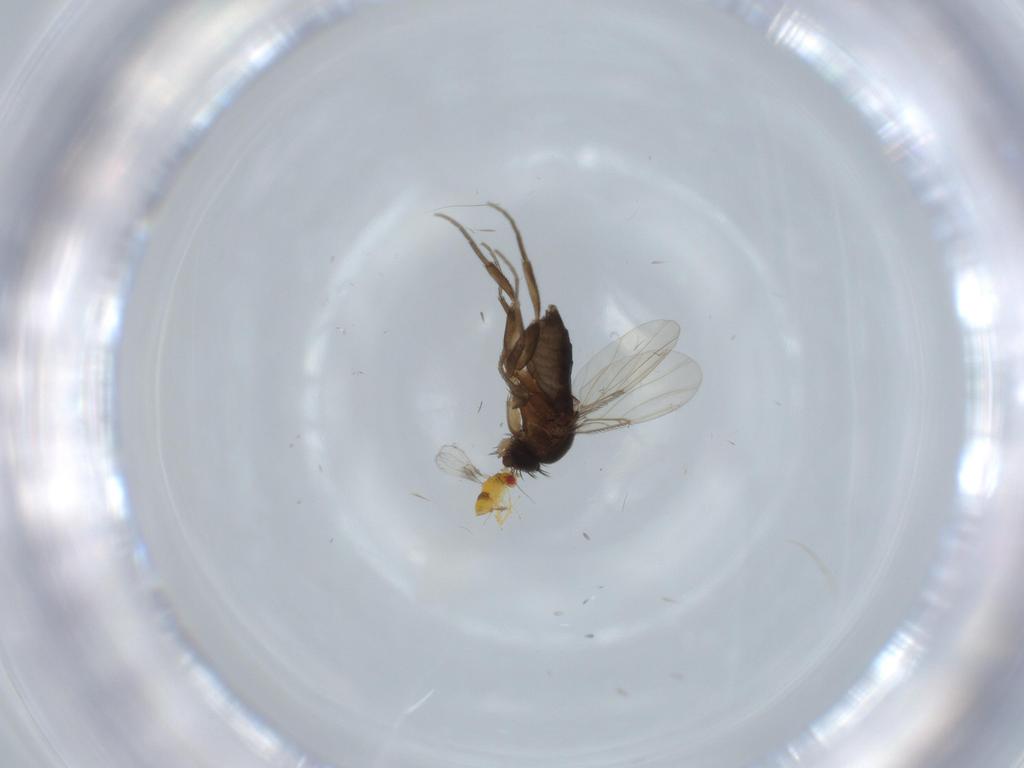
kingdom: Animalia
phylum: Arthropoda
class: Insecta
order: Diptera
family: Phoridae
